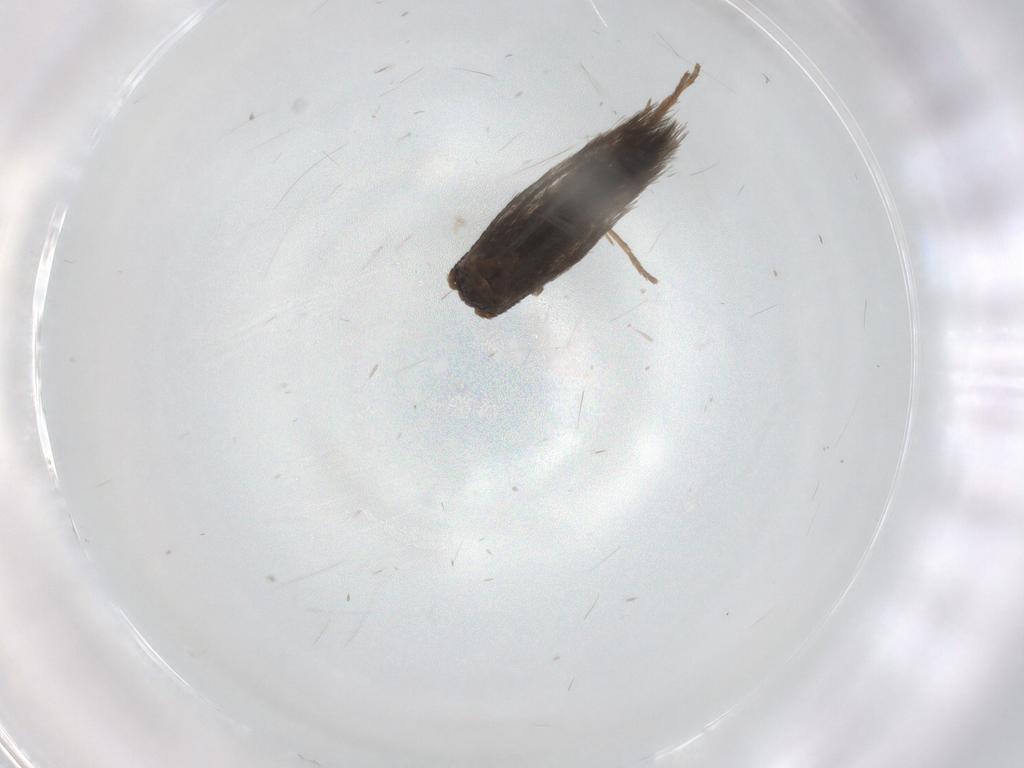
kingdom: Animalia
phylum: Arthropoda
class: Insecta
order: Lepidoptera
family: Nepticulidae
